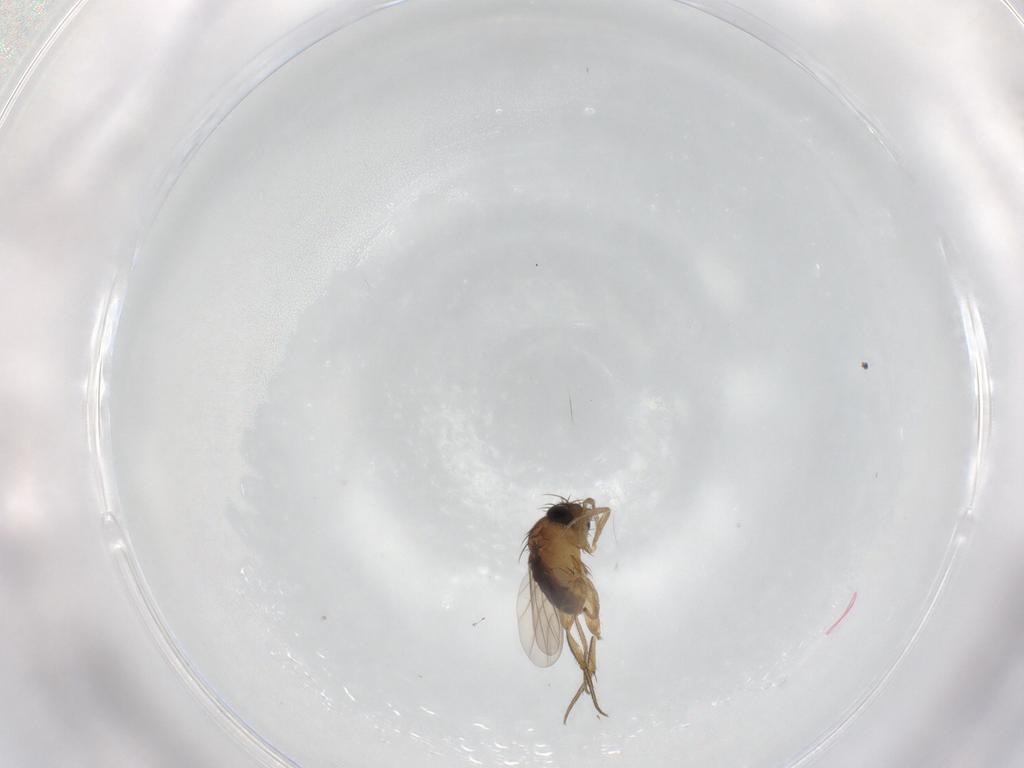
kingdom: Animalia
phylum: Arthropoda
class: Insecta
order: Diptera
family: Phoridae
